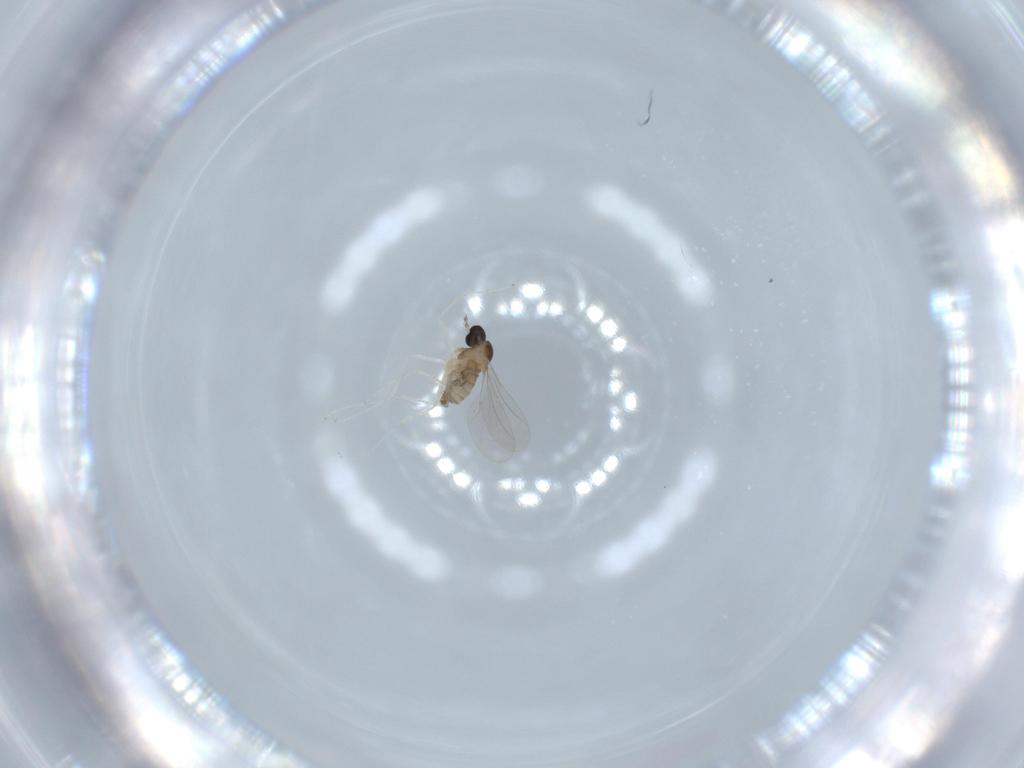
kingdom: Animalia
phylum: Arthropoda
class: Insecta
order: Diptera
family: Cecidomyiidae
